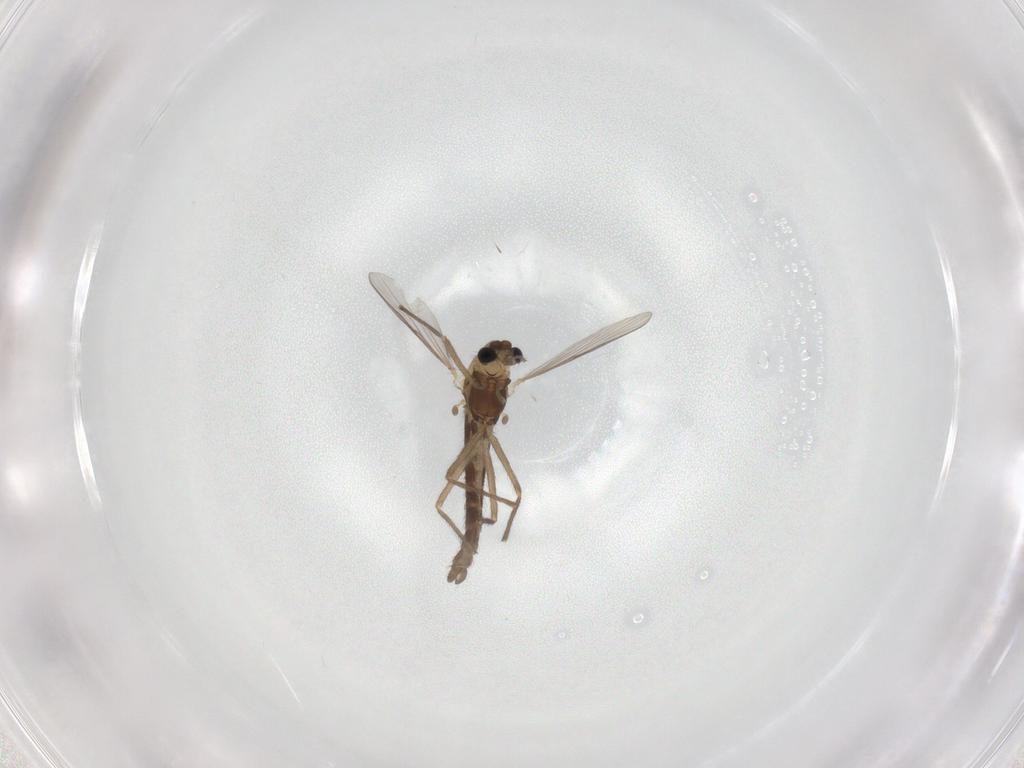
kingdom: Animalia
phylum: Arthropoda
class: Insecta
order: Diptera
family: Chironomidae
